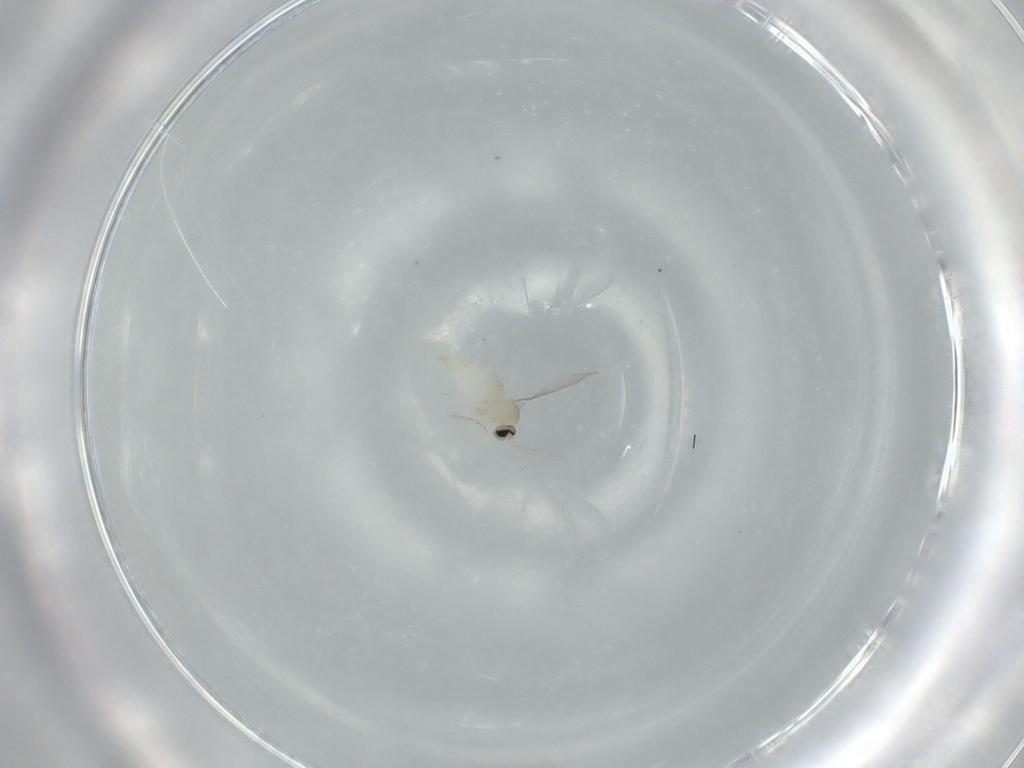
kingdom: Animalia
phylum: Arthropoda
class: Insecta
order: Diptera
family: Cecidomyiidae
